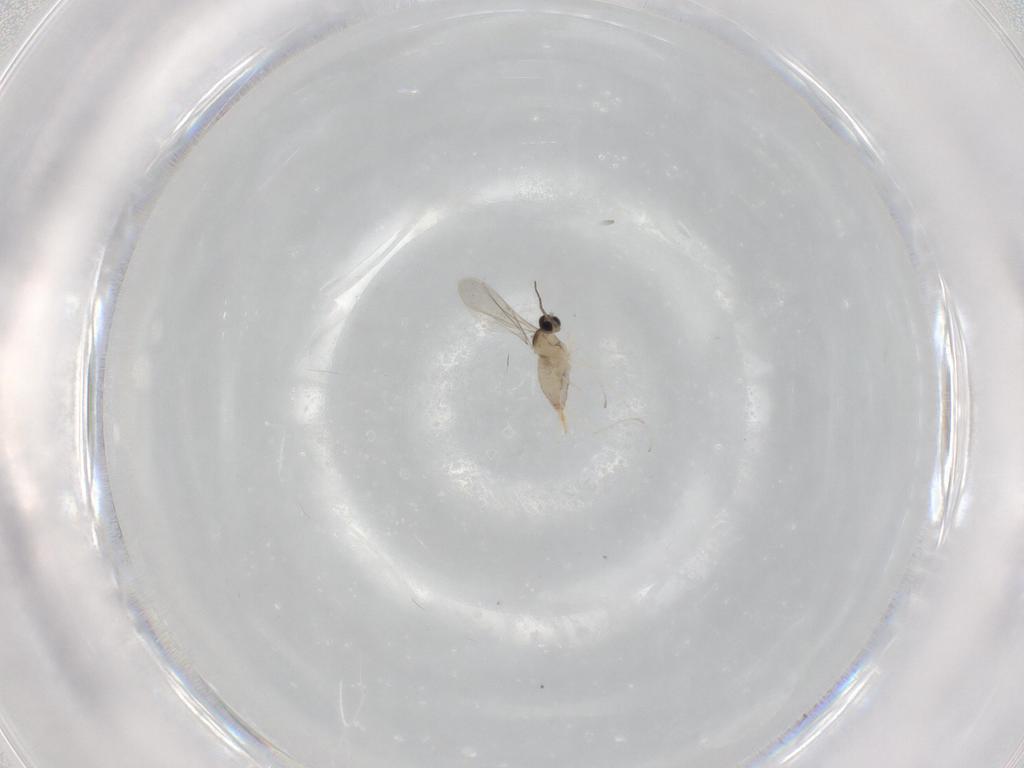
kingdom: Animalia
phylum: Arthropoda
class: Insecta
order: Diptera
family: Cecidomyiidae
